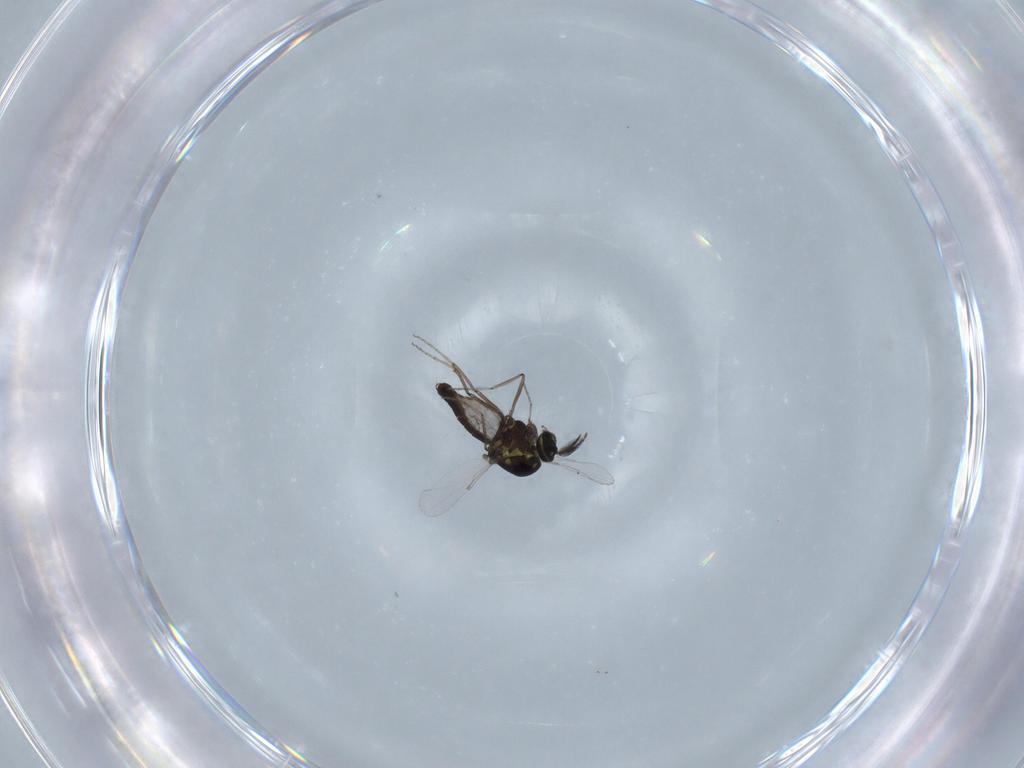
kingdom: Animalia
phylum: Arthropoda
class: Insecta
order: Diptera
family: Ceratopogonidae
